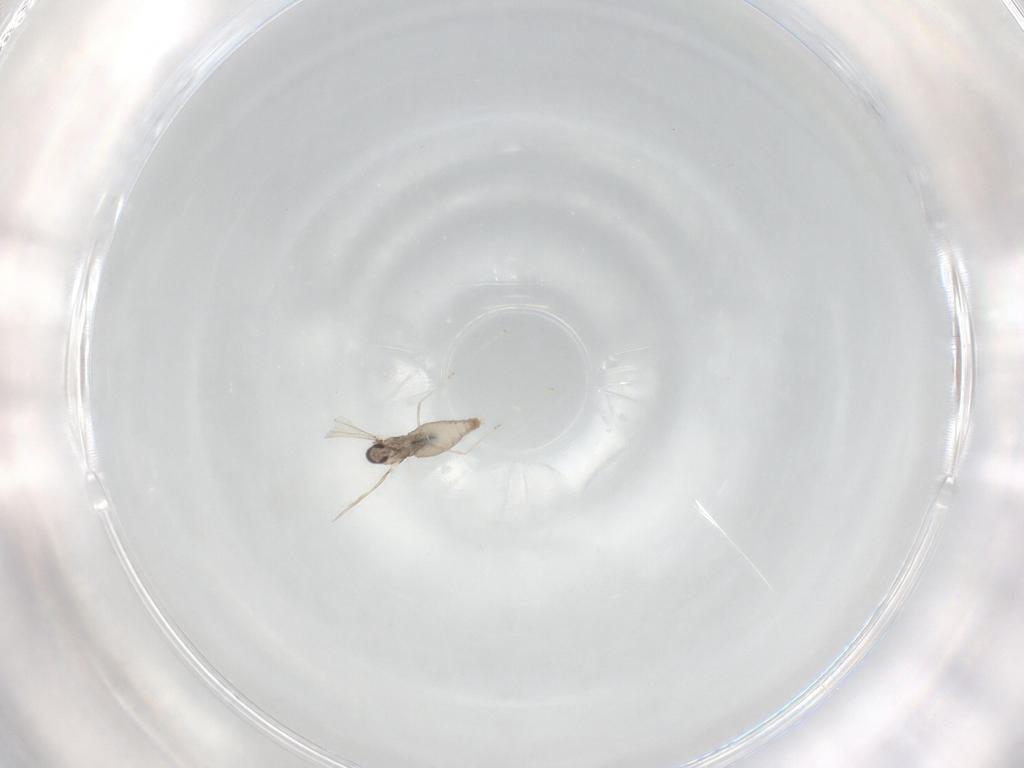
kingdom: Animalia
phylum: Arthropoda
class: Insecta
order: Diptera
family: Cecidomyiidae
